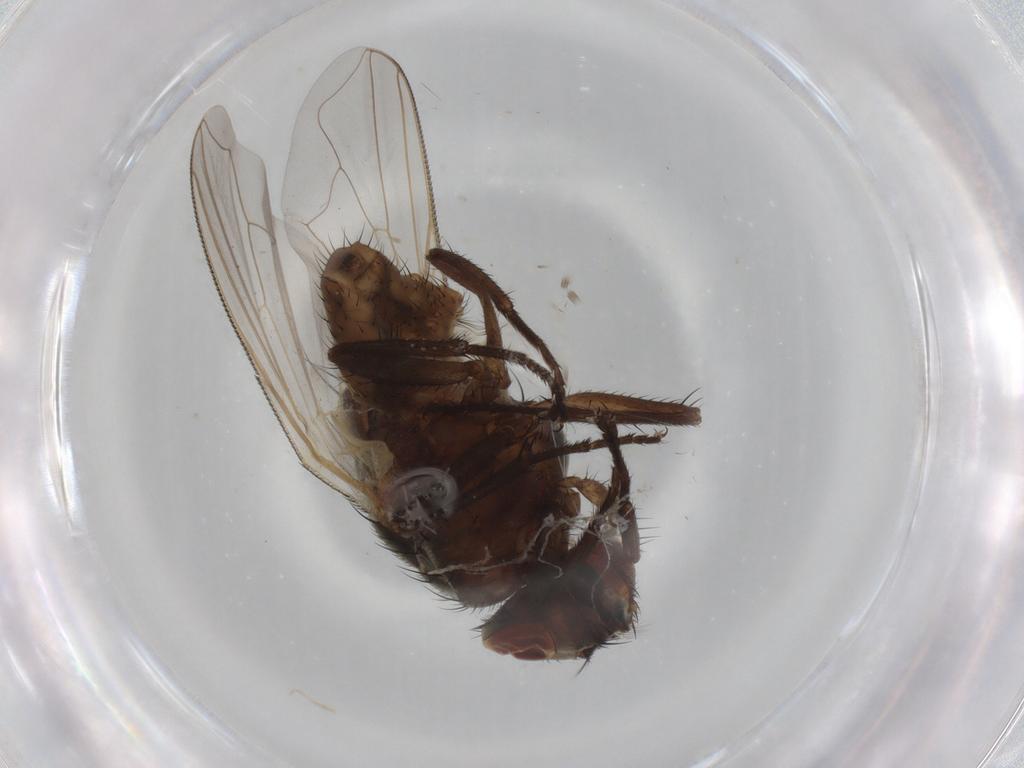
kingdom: Animalia
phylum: Arthropoda
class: Insecta
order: Diptera
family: Muscidae
